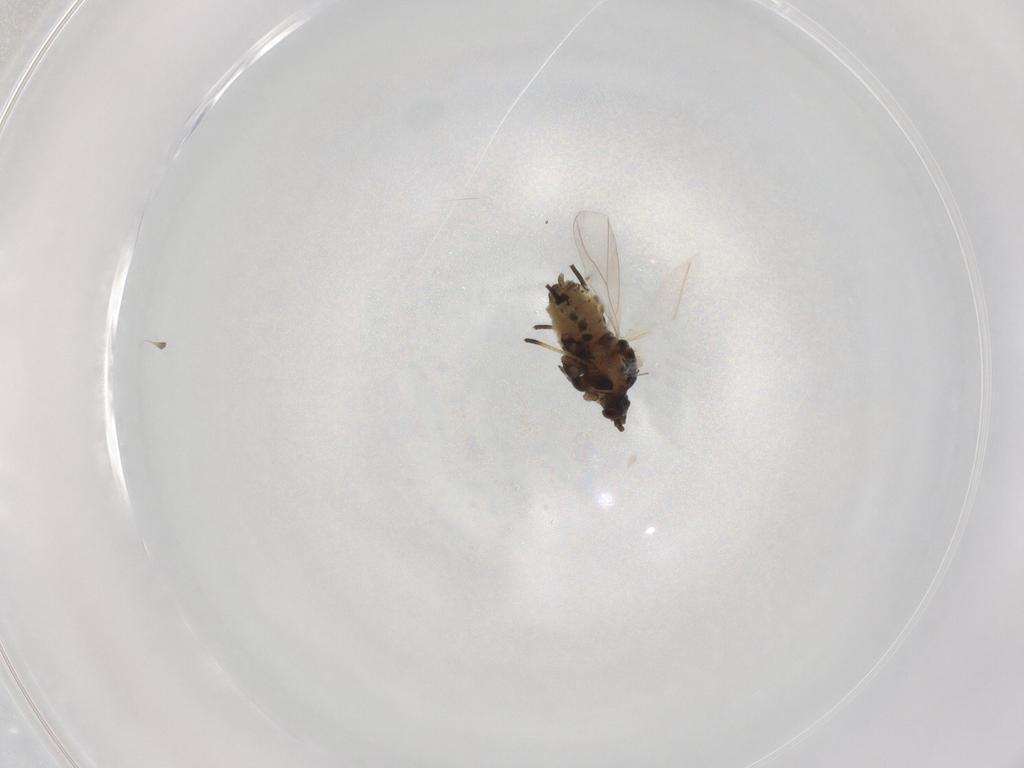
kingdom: Animalia
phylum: Arthropoda
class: Insecta
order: Hemiptera
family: Aphididae
